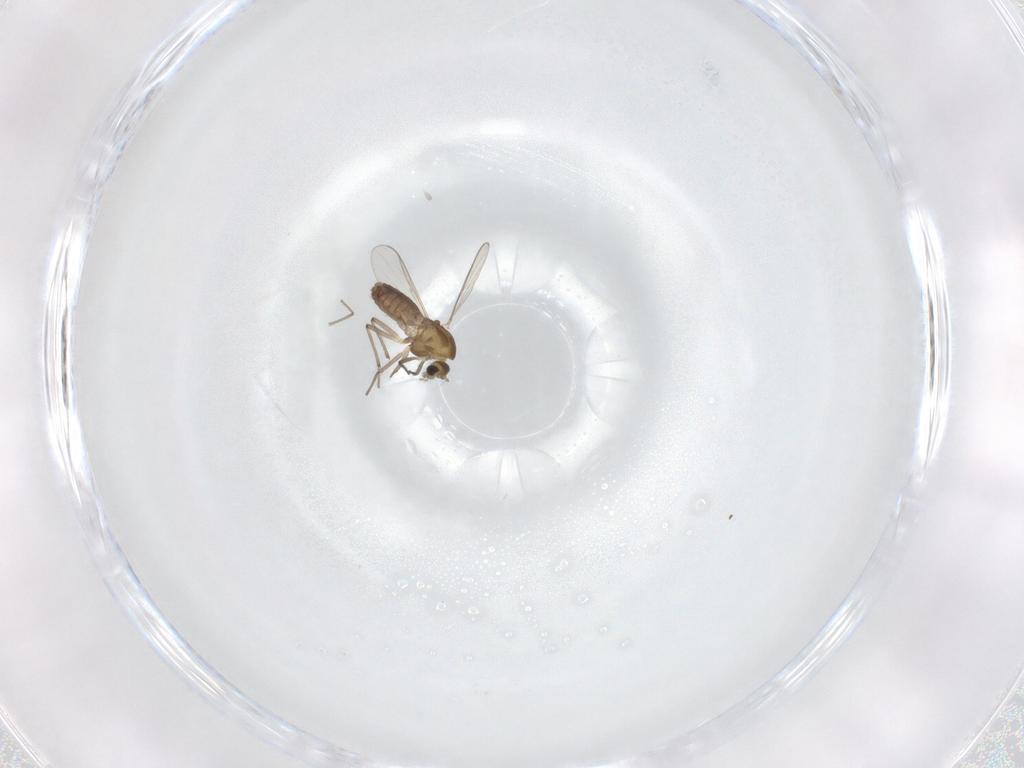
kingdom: Animalia
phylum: Arthropoda
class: Insecta
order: Diptera
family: Chironomidae
